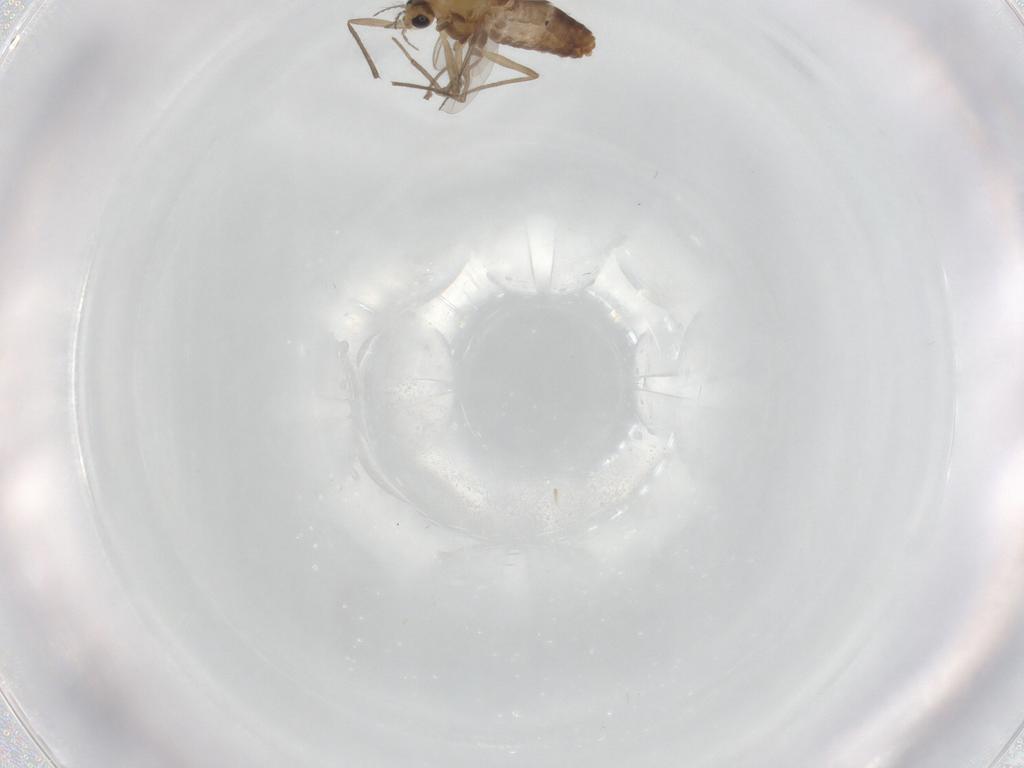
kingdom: Animalia
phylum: Arthropoda
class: Insecta
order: Diptera
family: Chironomidae
